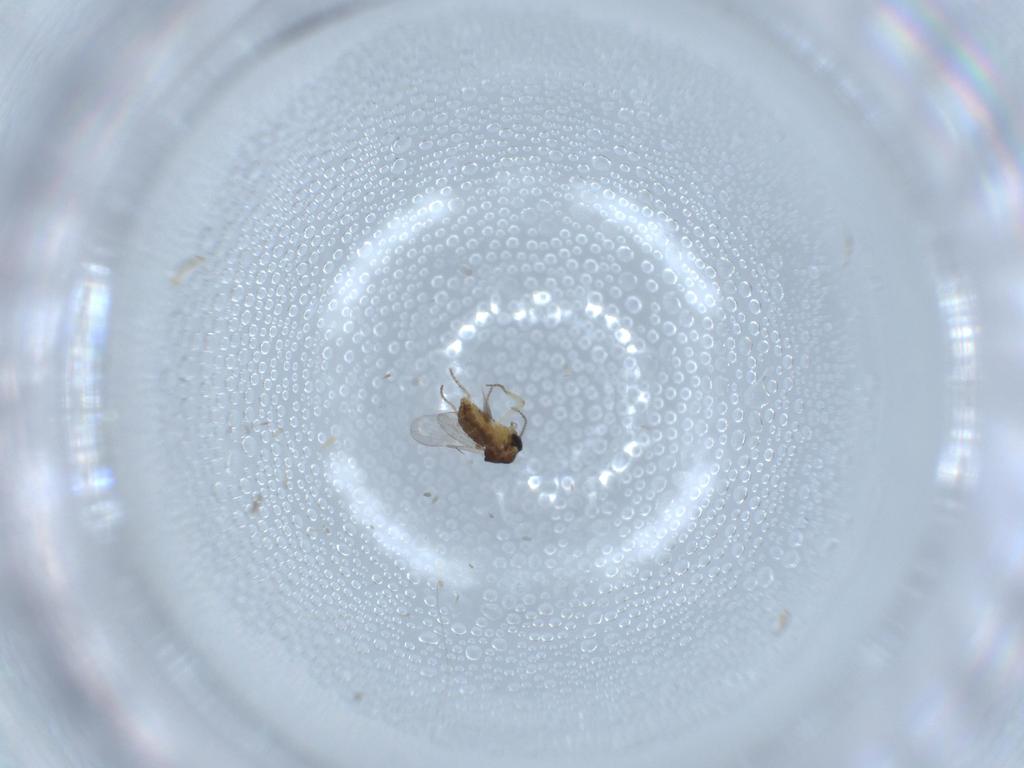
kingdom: Animalia
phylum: Arthropoda
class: Insecta
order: Diptera
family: Ceratopogonidae
